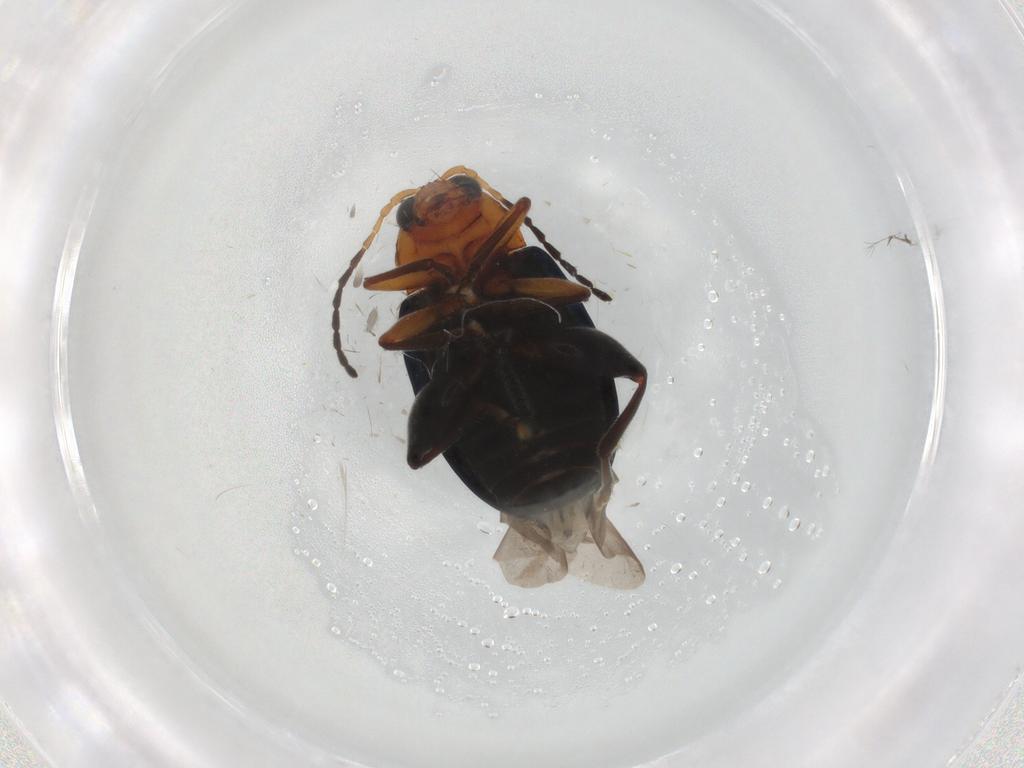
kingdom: Animalia
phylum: Arthropoda
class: Insecta
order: Coleoptera
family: Chrysomelidae
